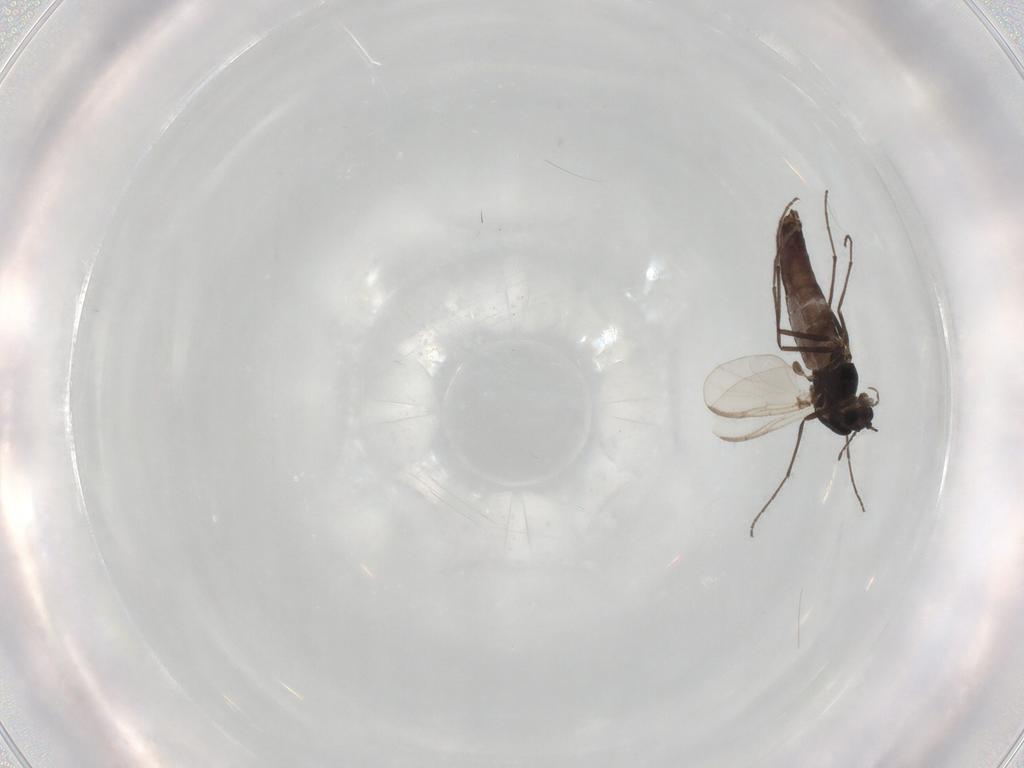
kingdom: Animalia
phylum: Arthropoda
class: Insecta
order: Diptera
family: Chironomidae
